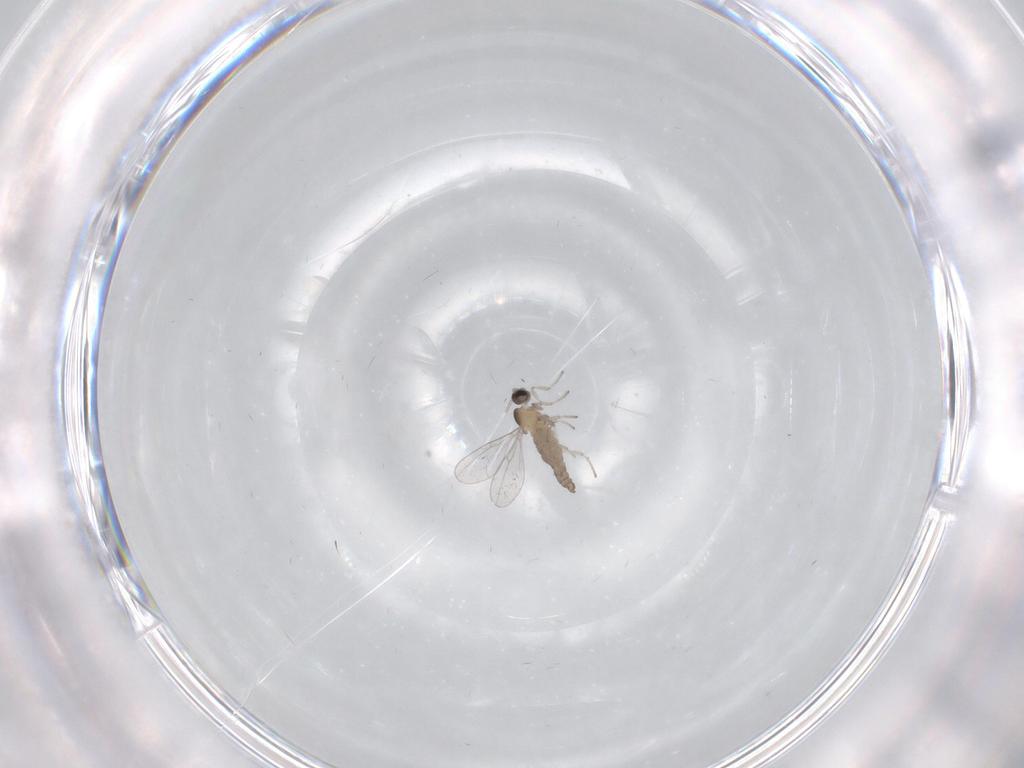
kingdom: Animalia
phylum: Arthropoda
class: Insecta
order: Diptera
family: Cecidomyiidae
